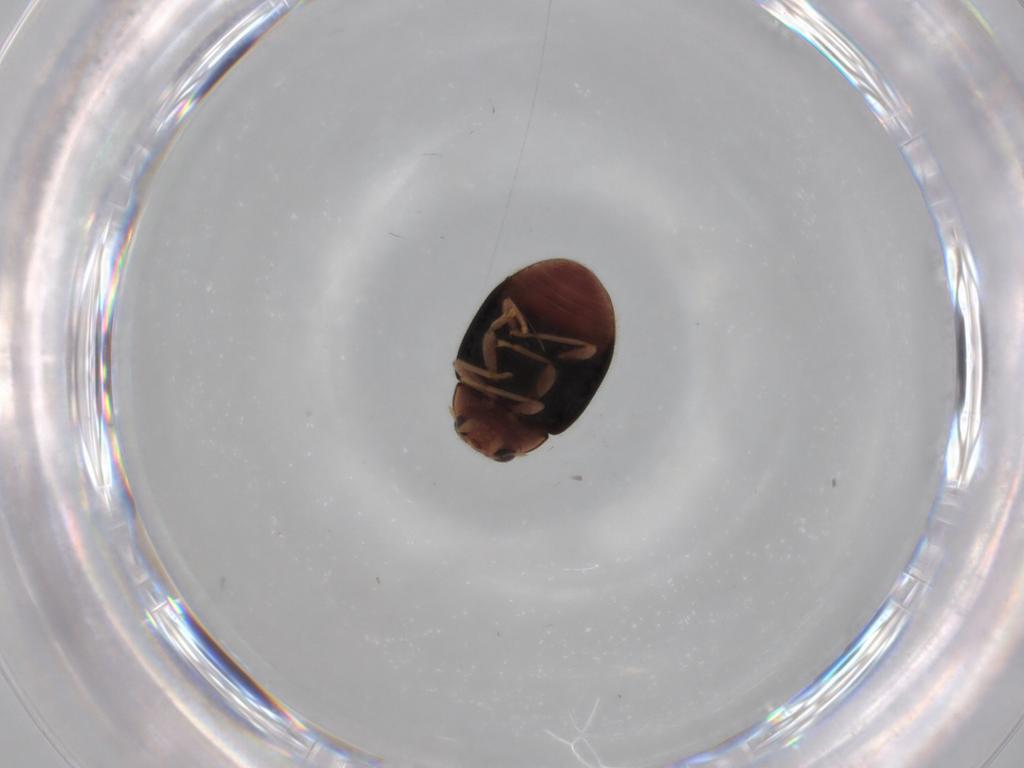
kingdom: Animalia
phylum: Arthropoda
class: Insecta
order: Coleoptera
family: Coccinellidae
